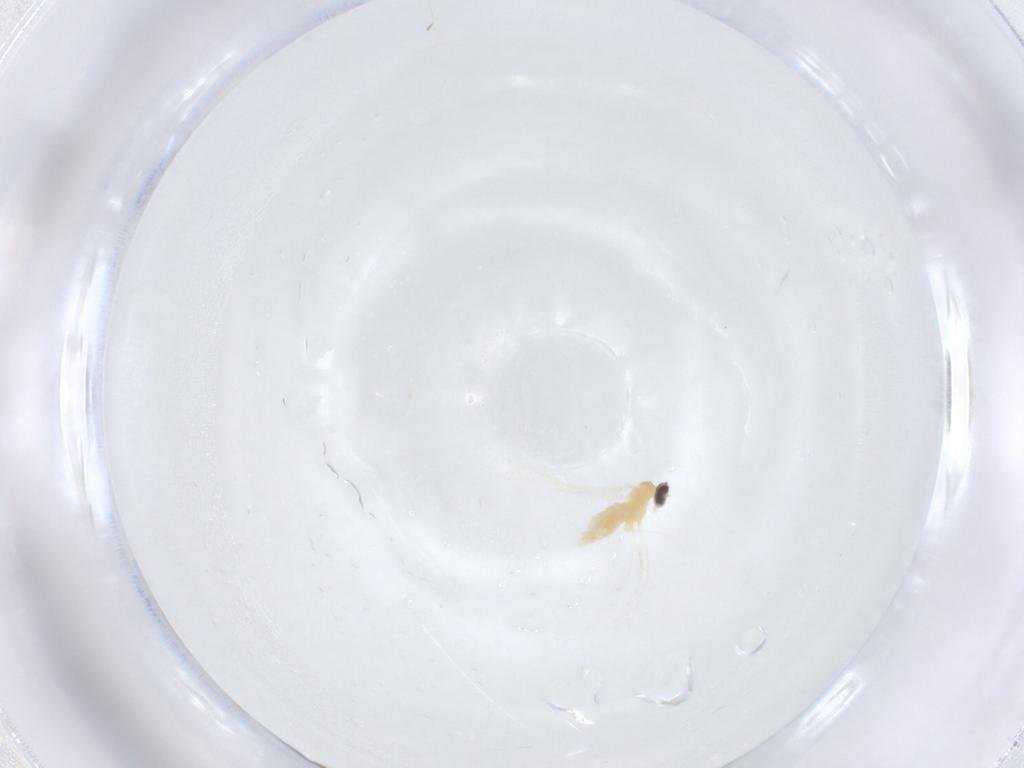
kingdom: Animalia
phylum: Arthropoda
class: Insecta
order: Diptera
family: Cecidomyiidae
